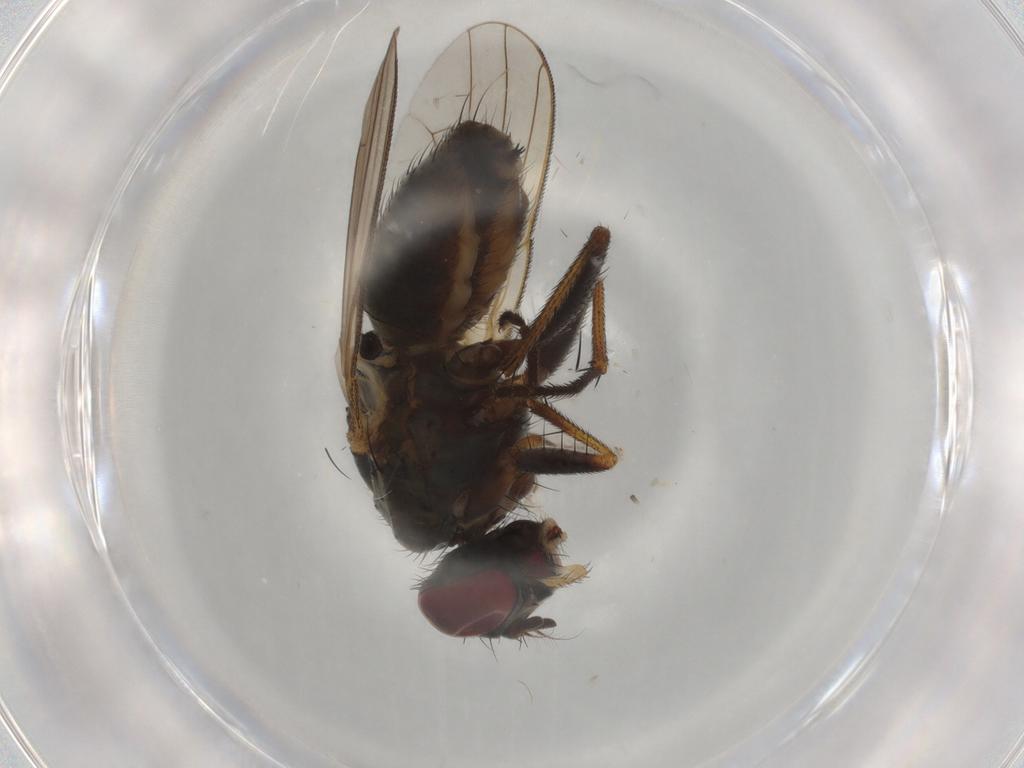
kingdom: Animalia
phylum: Arthropoda
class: Insecta
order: Diptera
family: Muscidae
